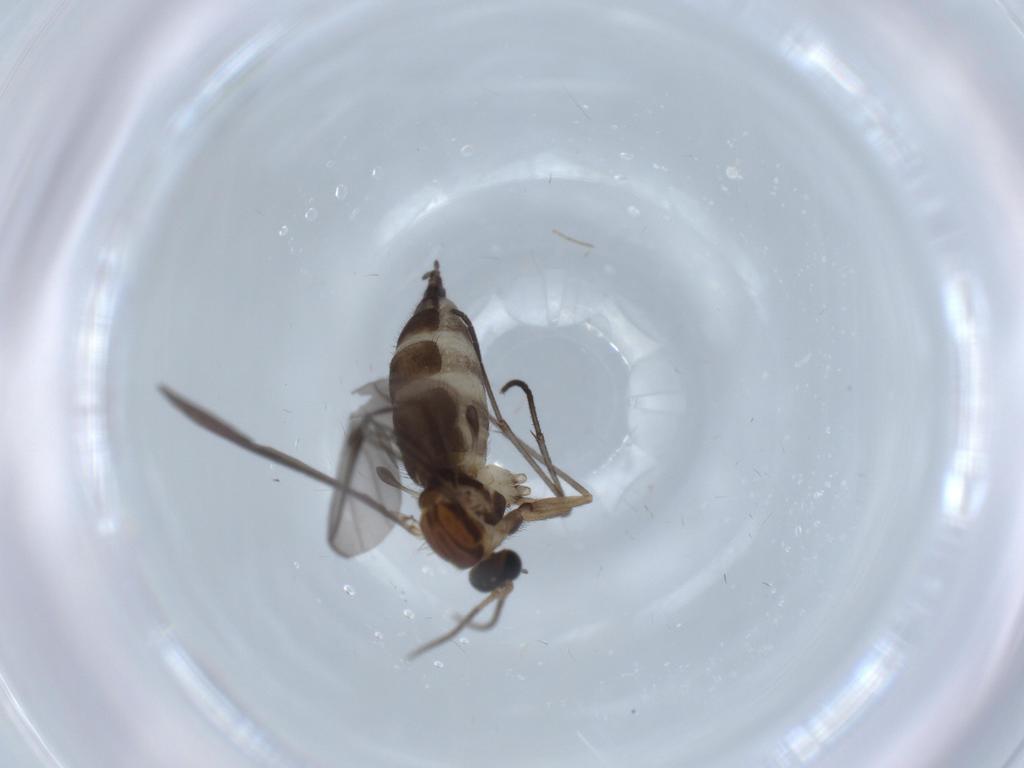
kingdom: Animalia
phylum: Arthropoda
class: Insecta
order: Diptera
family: Sciaridae
